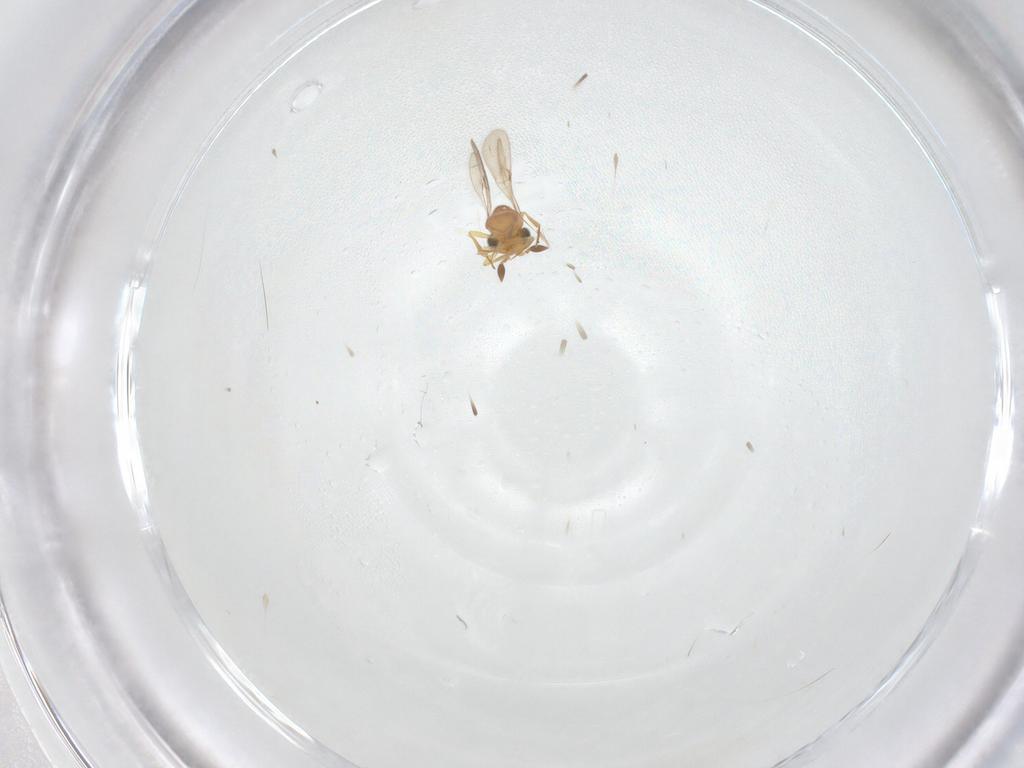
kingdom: Animalia
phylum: Arthropoda
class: Insecta
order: Hymenoptera
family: Scelionidae
